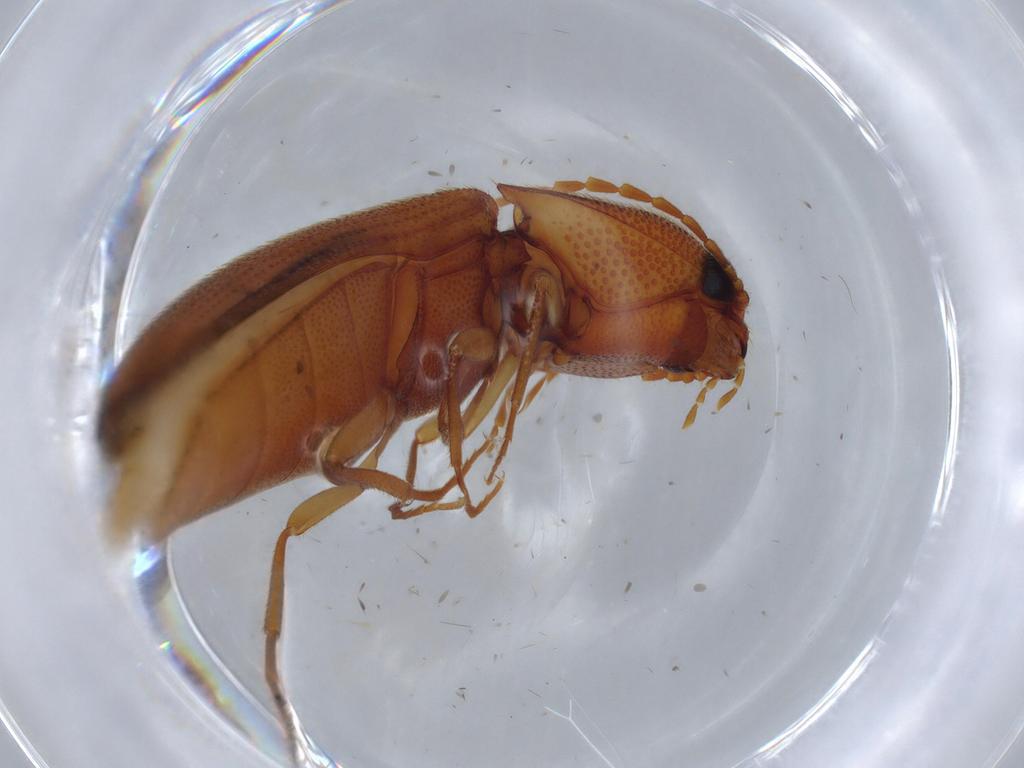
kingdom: Animalia
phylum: Arthropoda
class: Insecta
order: Coleoptera
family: Elateridae
